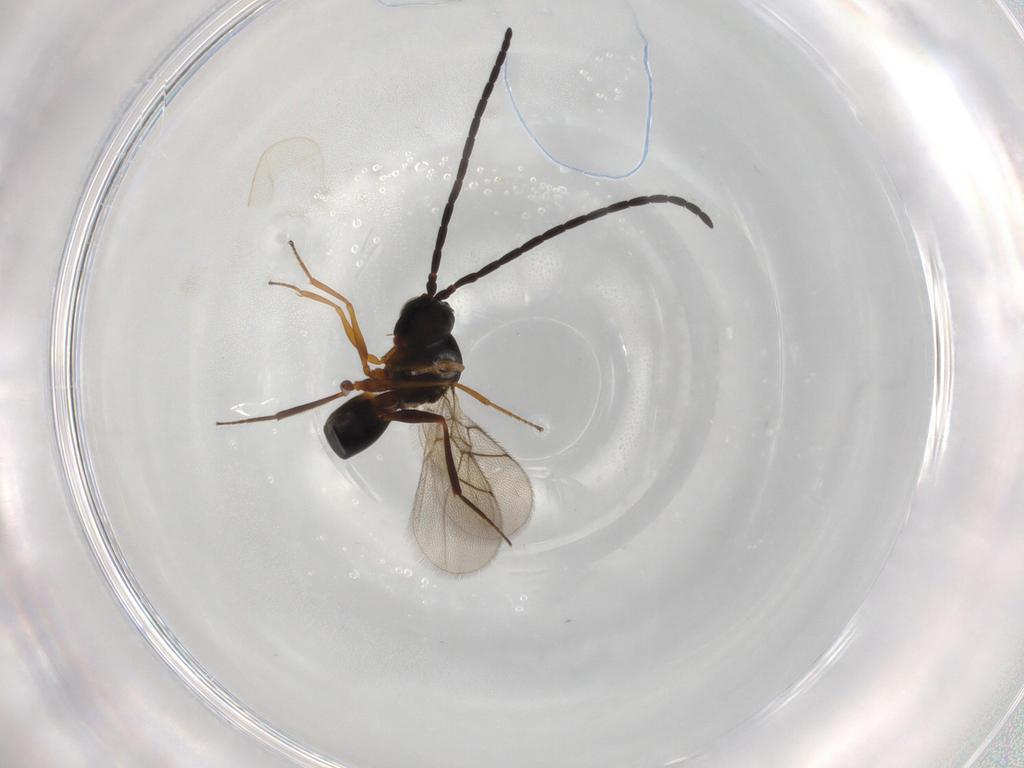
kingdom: Animalia
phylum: Arthropoda
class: Insecta
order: Hymenoptera
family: Figitidae
